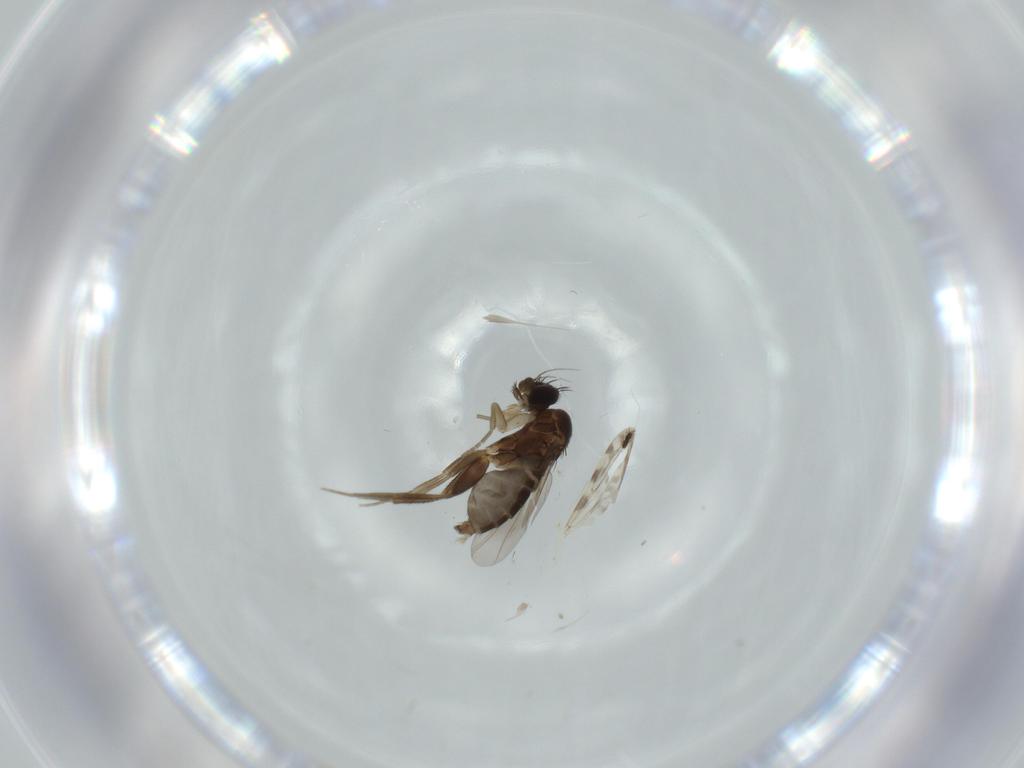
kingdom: Animalia
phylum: Arthropoda
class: Insecta
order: Diptera
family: Phoridae
